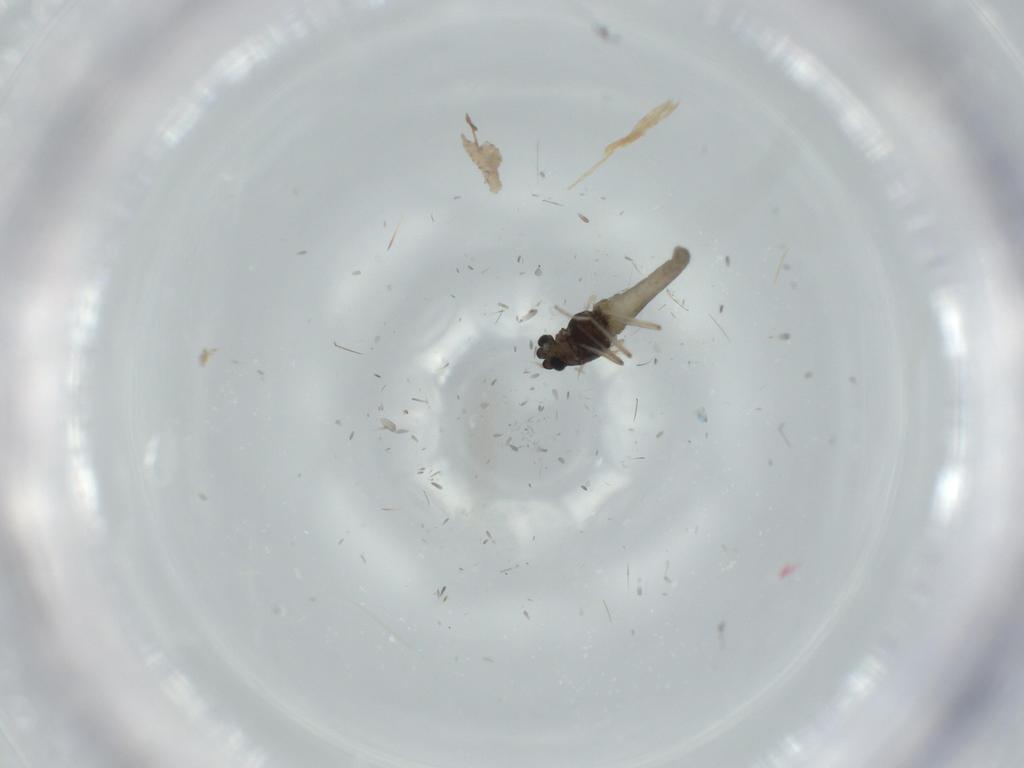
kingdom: Animalia
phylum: Arthropoda
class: Insecta
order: Diptera
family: Chironomidae
